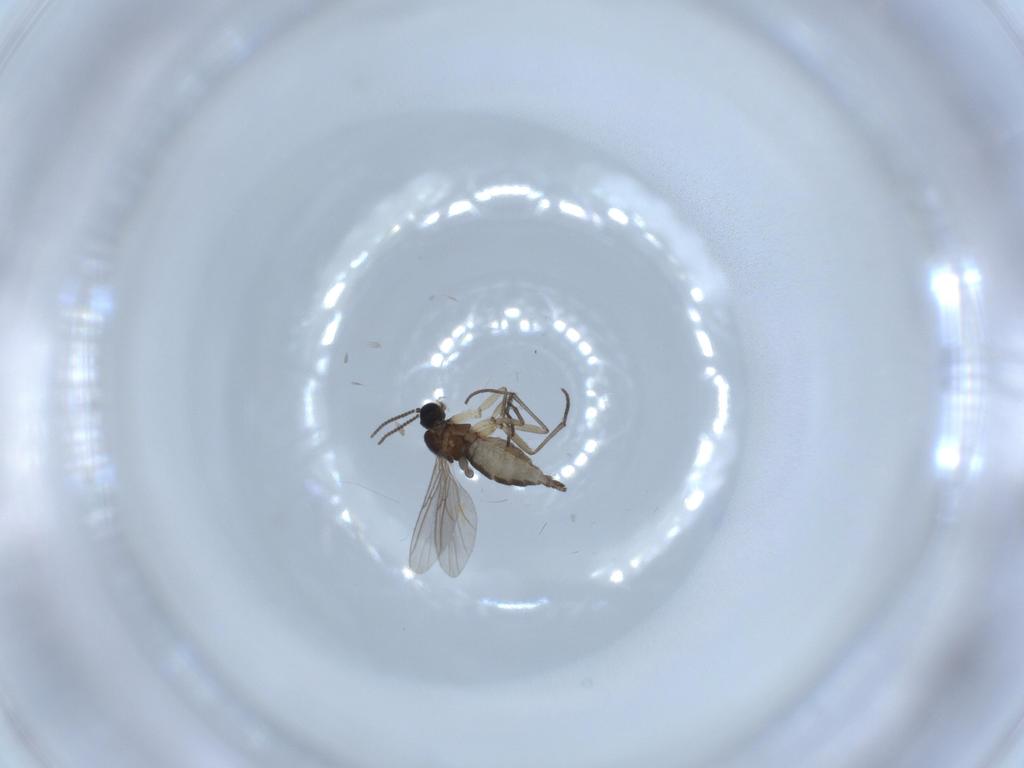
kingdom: Animalia
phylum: Arthropoda
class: Insecta
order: Diptera
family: Sciaridae
